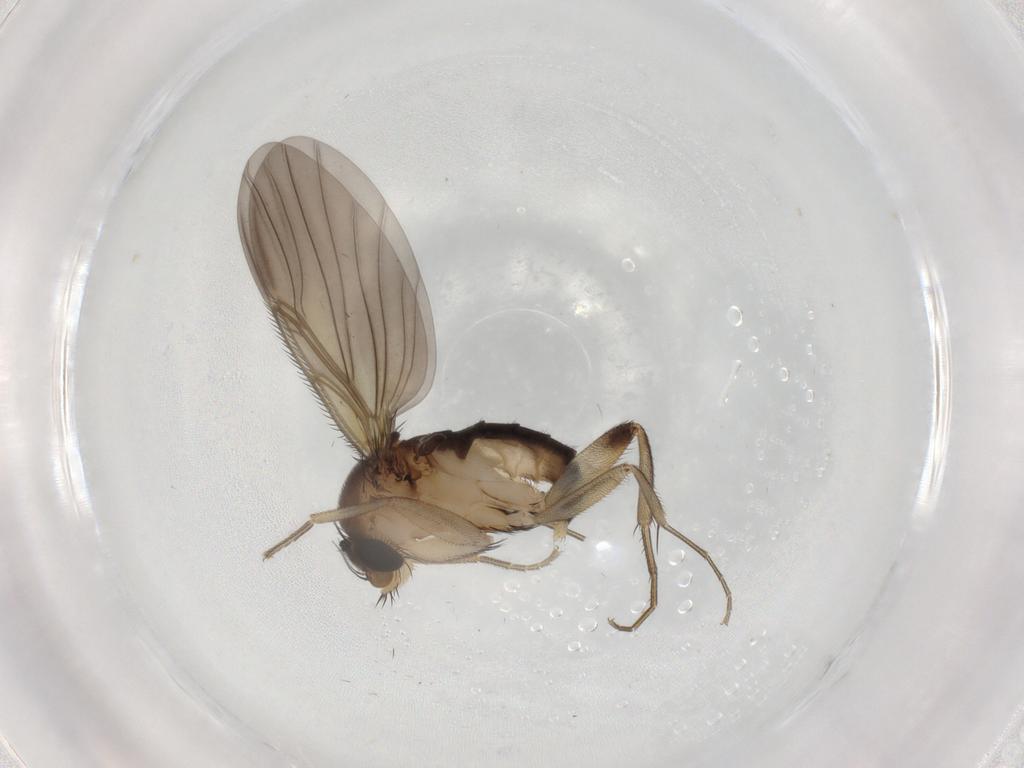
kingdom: Animalia
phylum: Arthropoda
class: Insecta
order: Diptera
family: Phoridae
